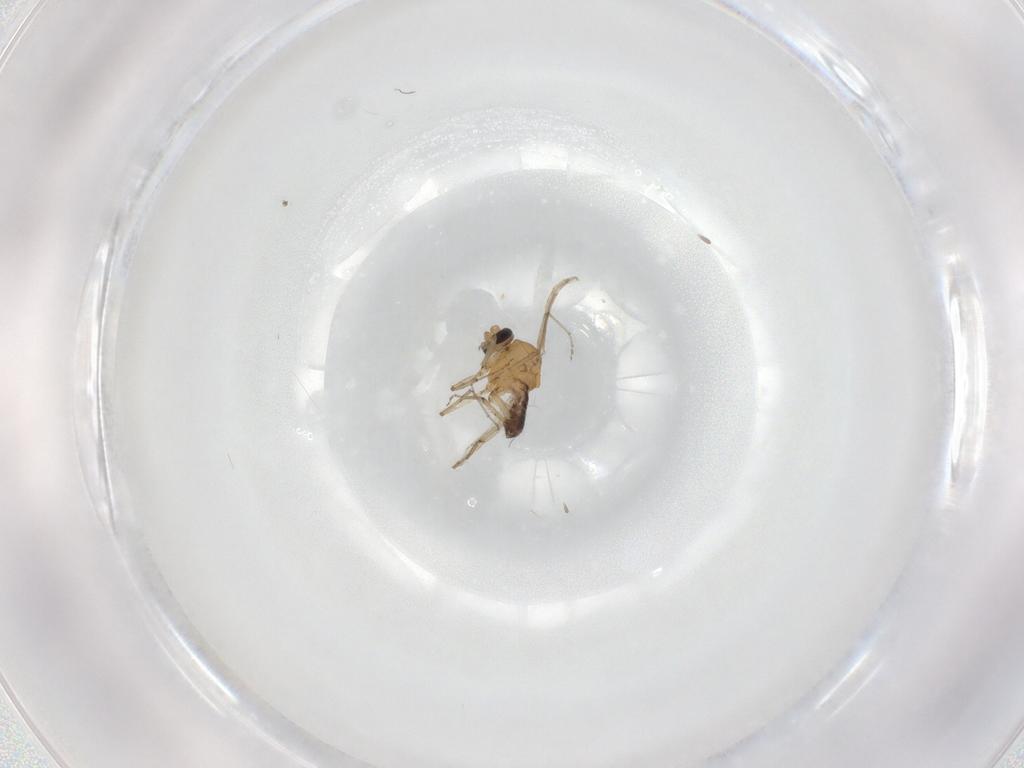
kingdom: Animalia
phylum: Arthropoda
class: Insecta
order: Diptera
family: Ceratopogonidae
